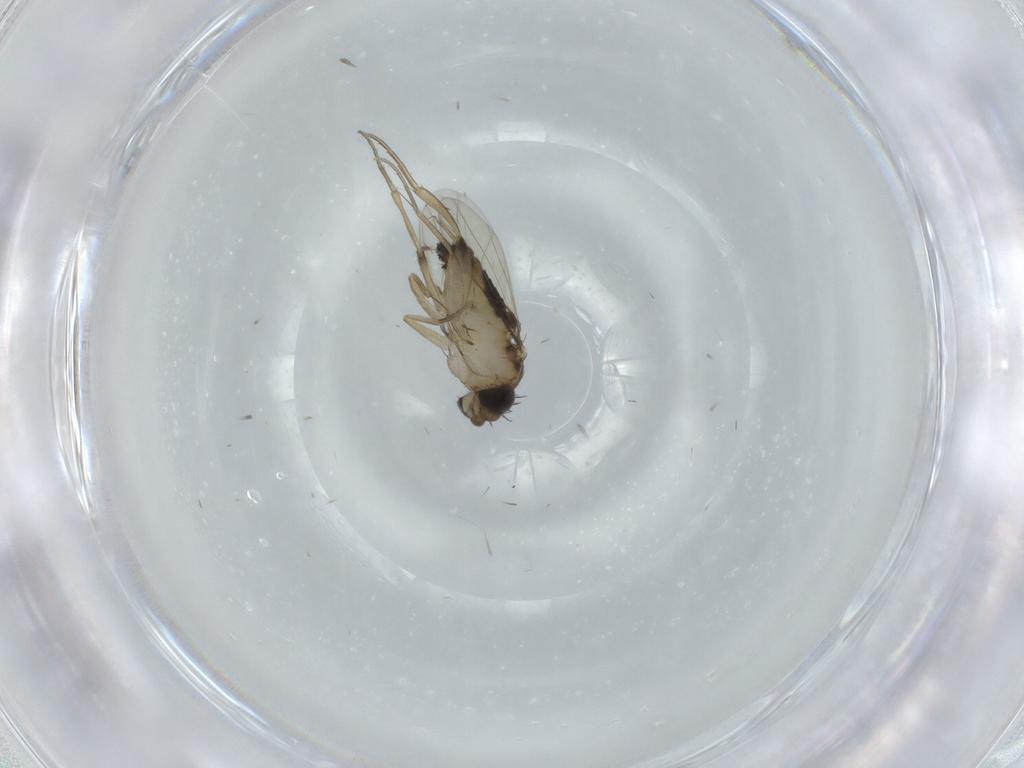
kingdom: Animalia
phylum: Arthropoda
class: Insecta
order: Diptera
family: Phoridae
